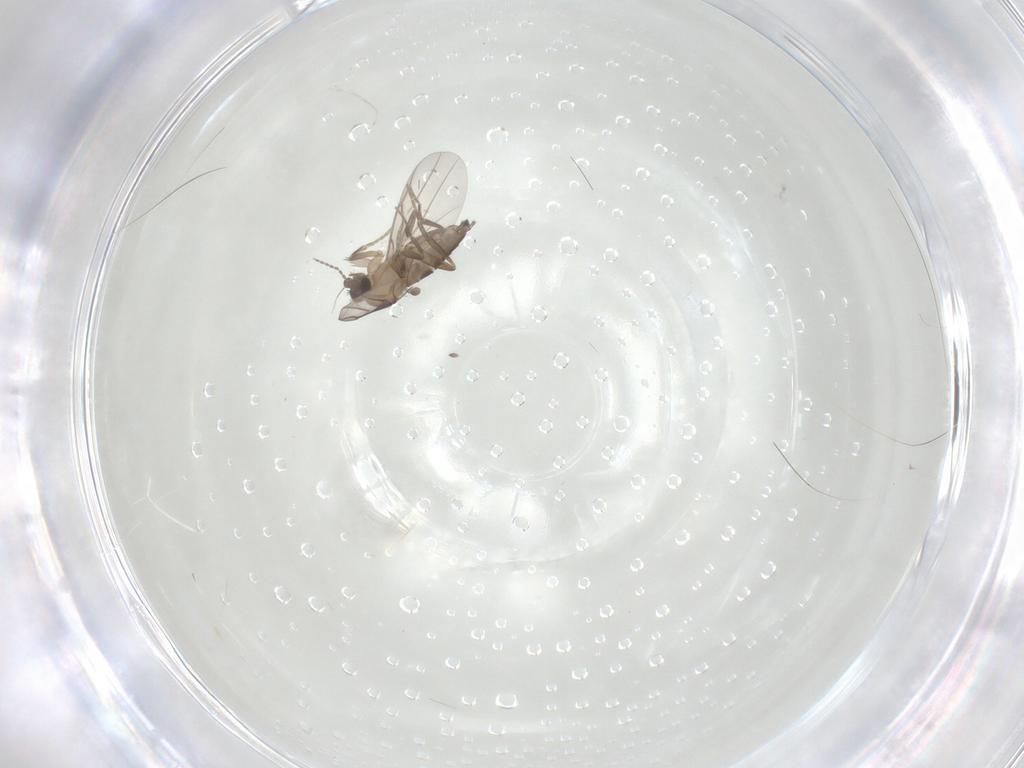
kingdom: Animalia
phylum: Arthropoda
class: Insecta
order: Diptera
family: Phoridae
